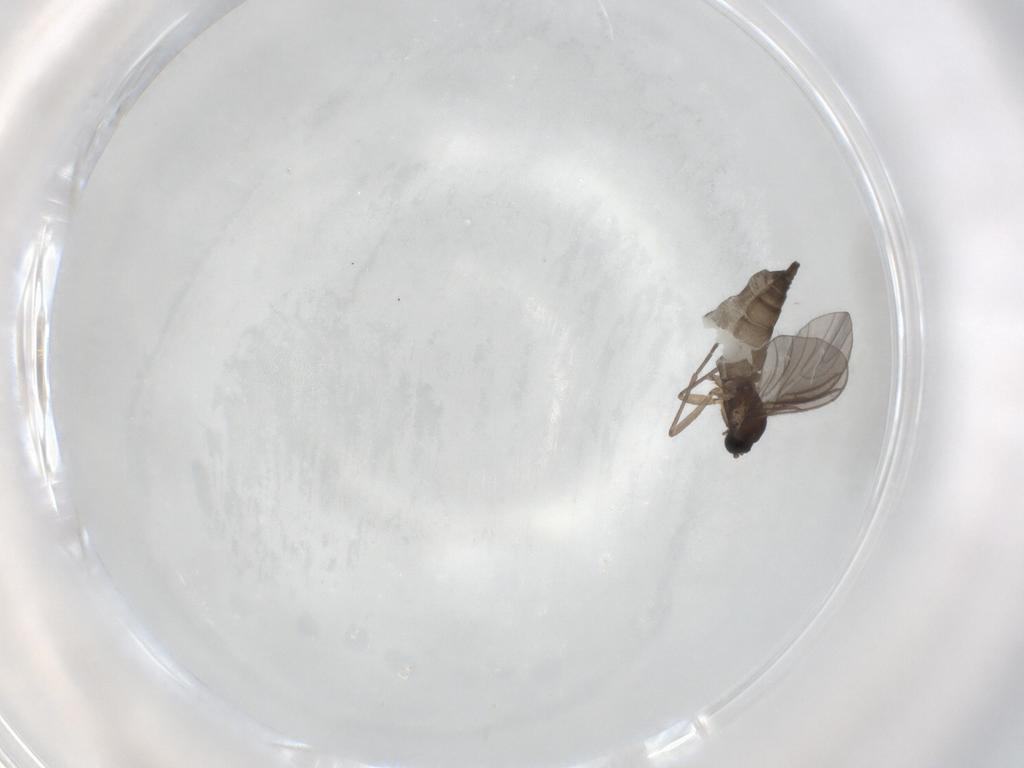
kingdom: Animalia
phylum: Arthropoda
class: Insecta
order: Diptera
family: Sciaridae
